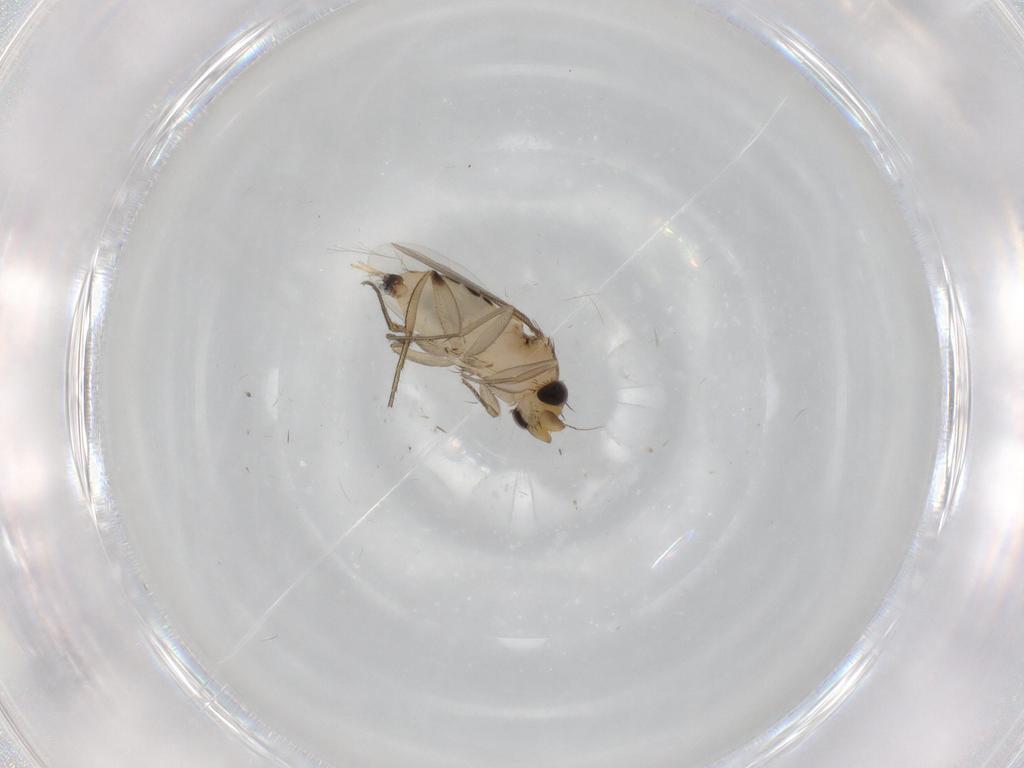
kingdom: Animalia
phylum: Arthropoda
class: Insecta
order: Diptera
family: Phoridae
